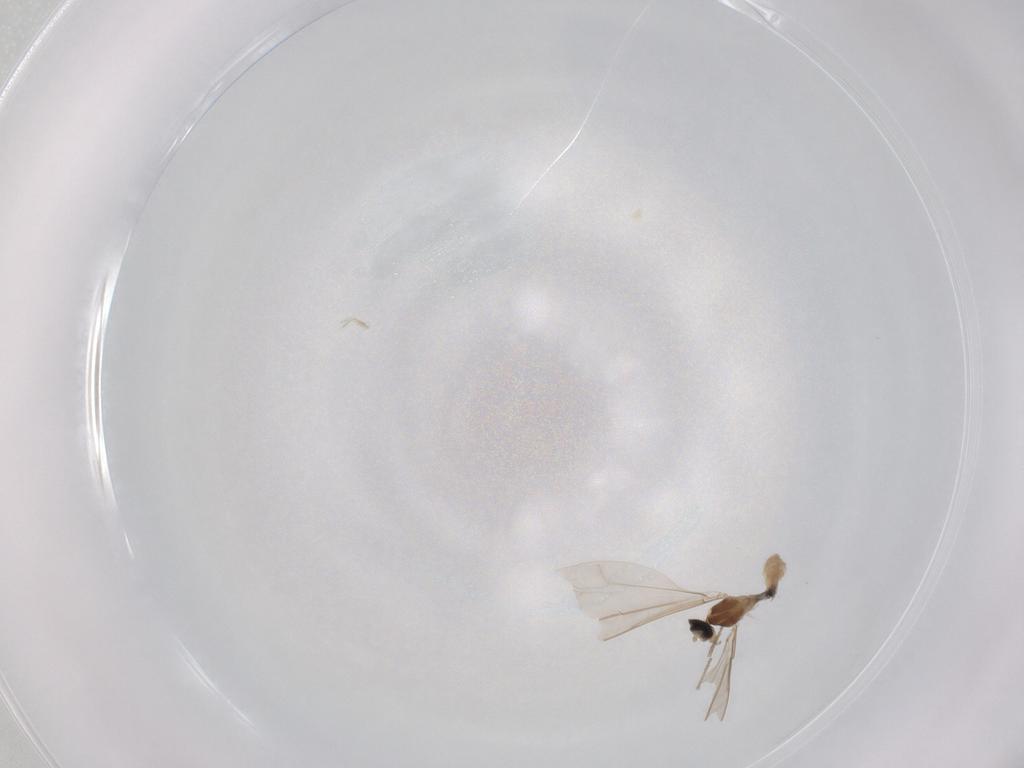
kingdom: Animalia
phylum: Arthropoda
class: Insecta
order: Diptera
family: Cecidomyiidae
